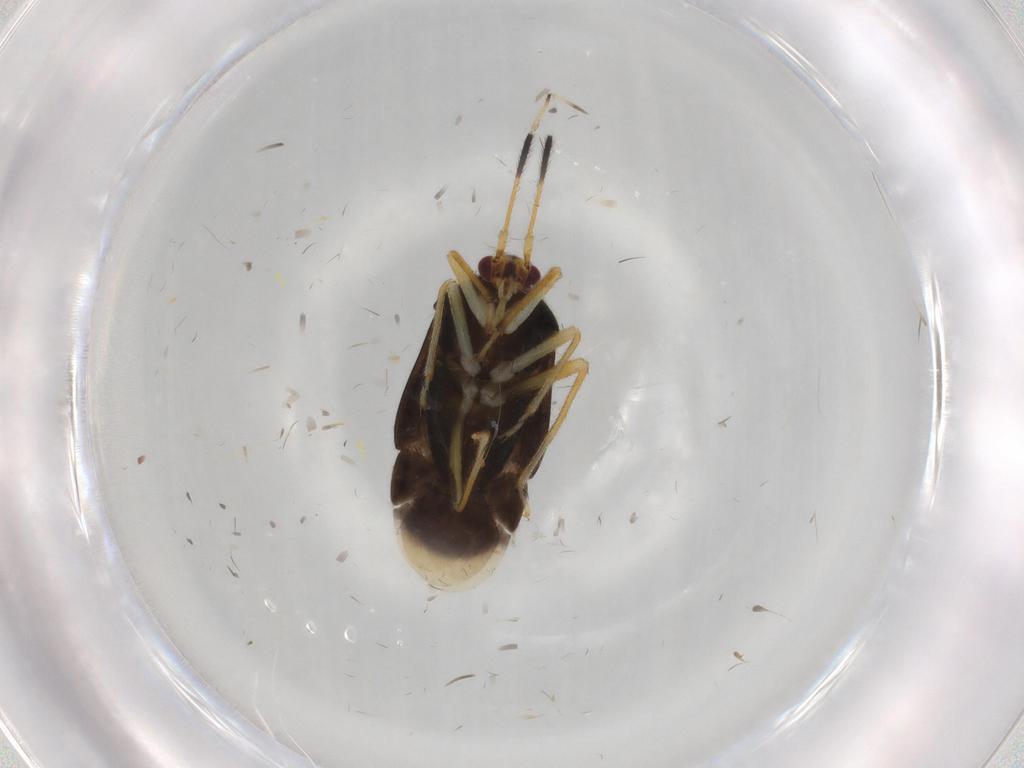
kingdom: Animalia
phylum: Arthropoda
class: Insecta
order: Hemiptera
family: Miridae
